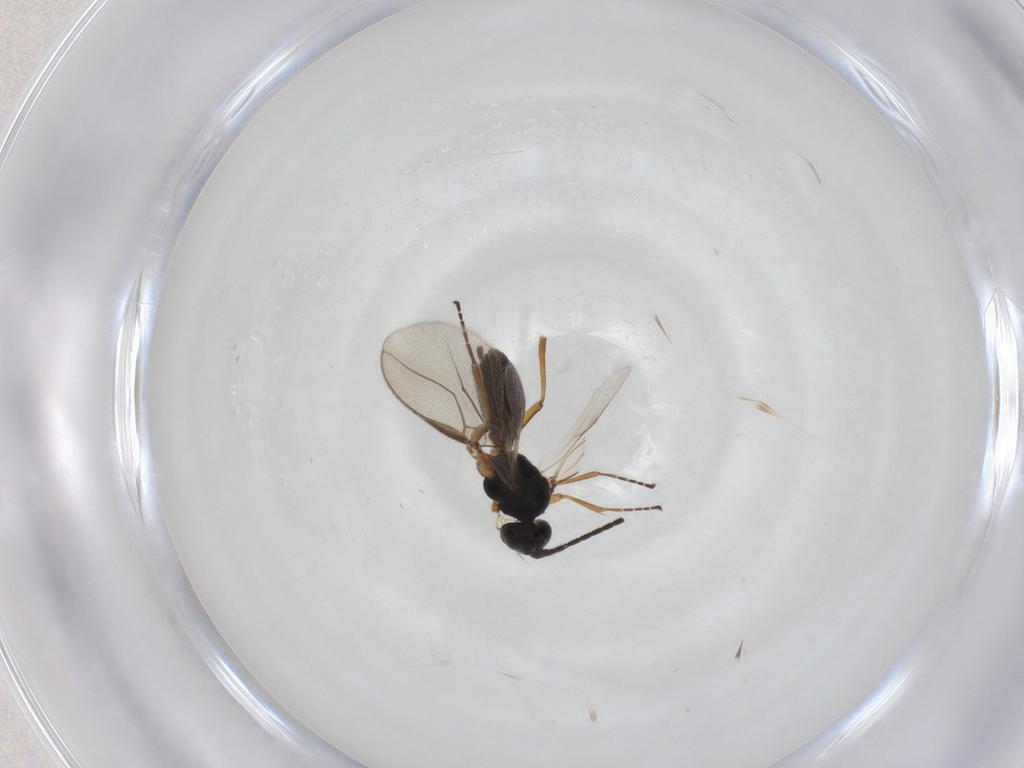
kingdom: Animalia
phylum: Arthropoda
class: Insecta
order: Hymenoptera
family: Braconidae
